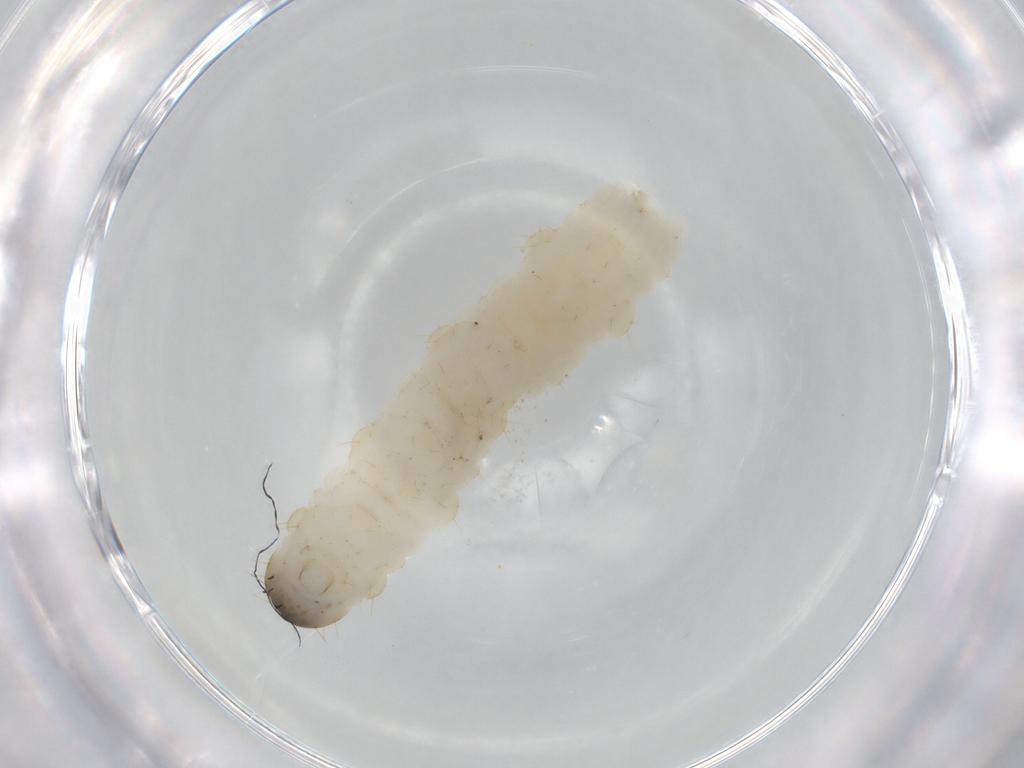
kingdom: Animalia
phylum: Arthropoda
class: Insecta
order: Coleoptera
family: Chrysomelidae
